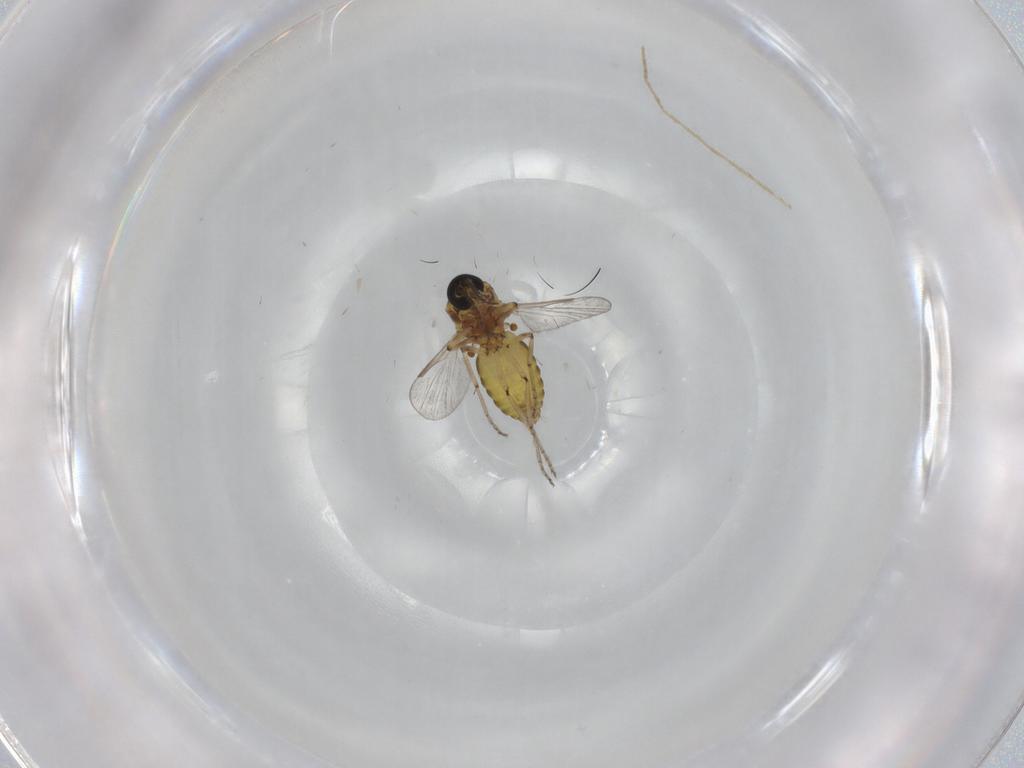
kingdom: Animalia
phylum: Arthropoda
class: Insecta
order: Diptera
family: Ceratopogonidae
